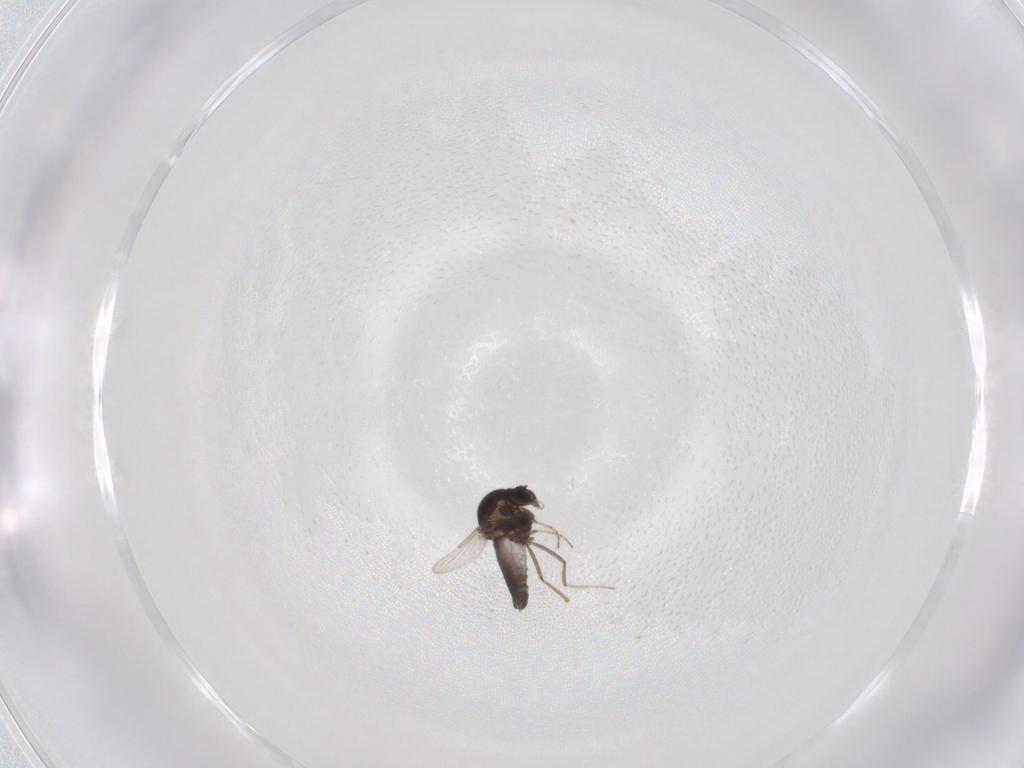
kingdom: Animalia
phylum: Arthropoda
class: Insecta
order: Diptera
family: Ceratopogonidae
